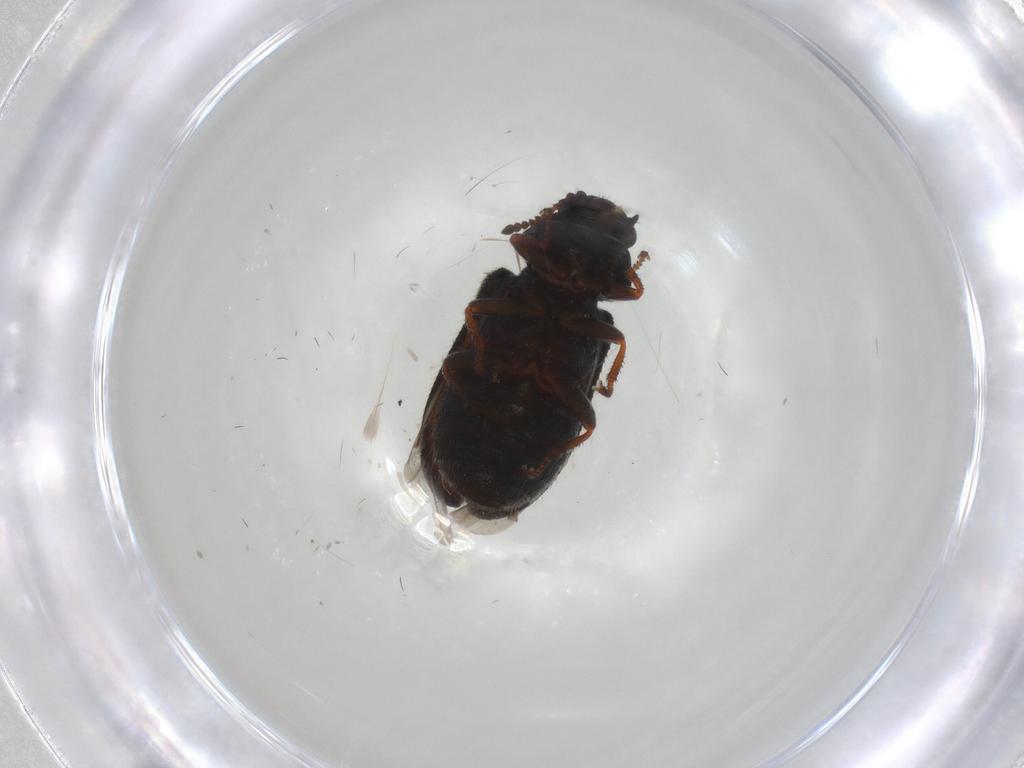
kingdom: Animalia
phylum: Arthropoda
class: Insecta
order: Coleoptera
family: Melyridae
